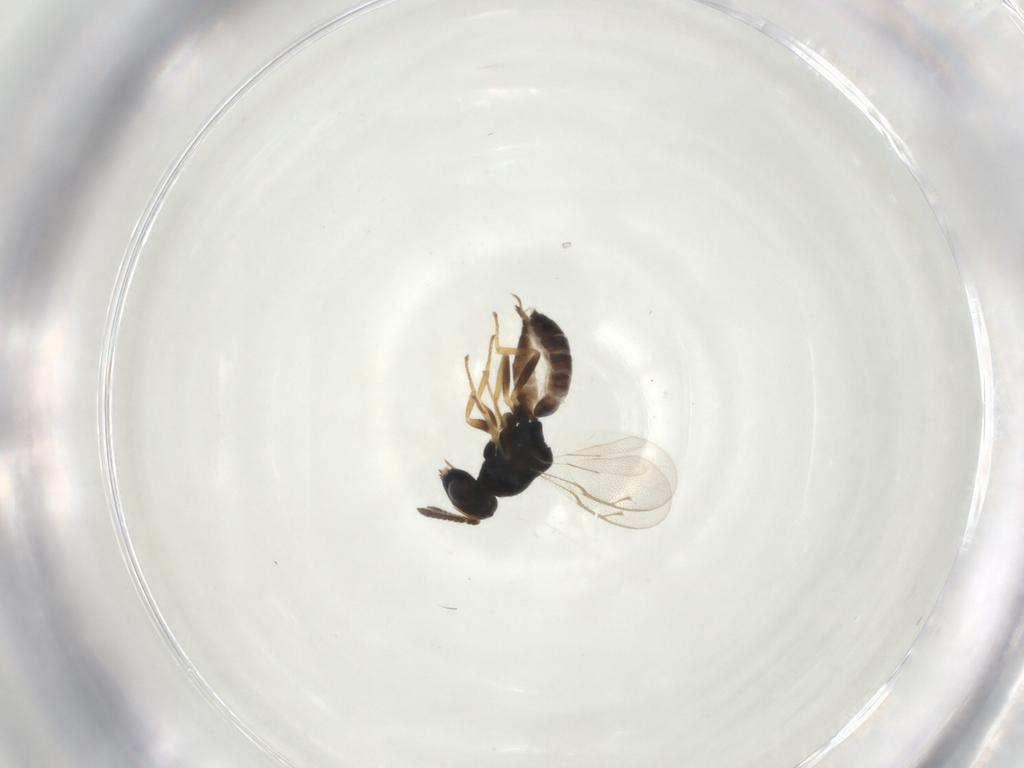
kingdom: Animalia
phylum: Arthropoda
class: Insecta
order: Hymenoptera
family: Pteromalidae
